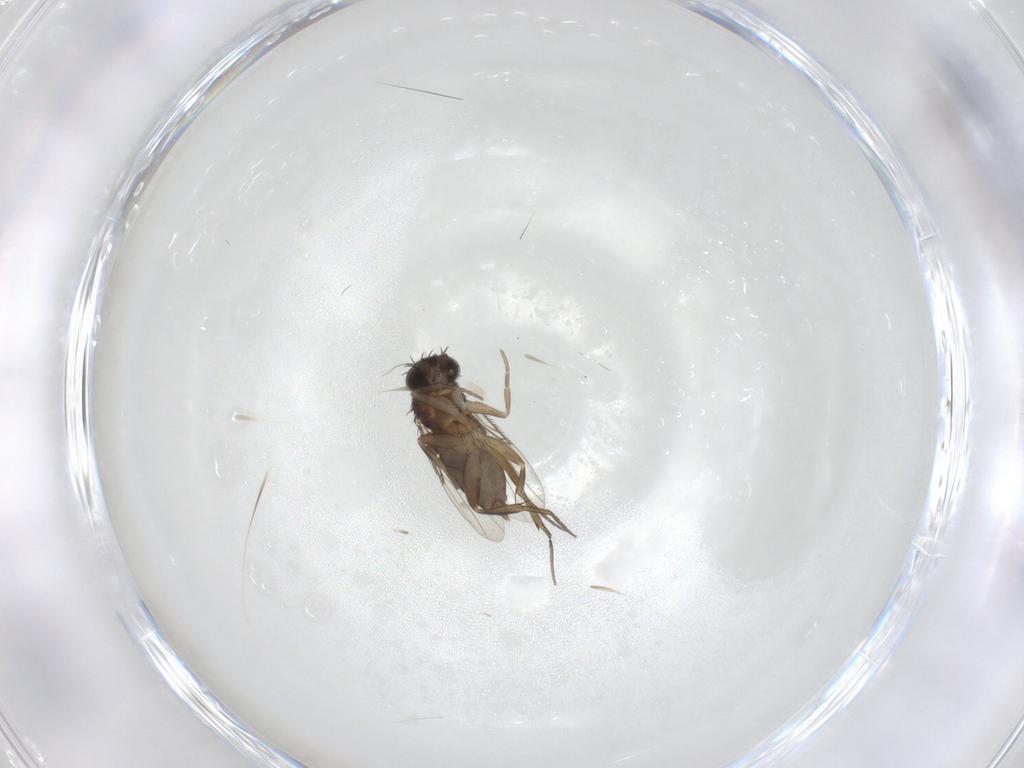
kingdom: Animalia
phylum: Arthropoda
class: Insecta
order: Diptera
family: Phoridae
